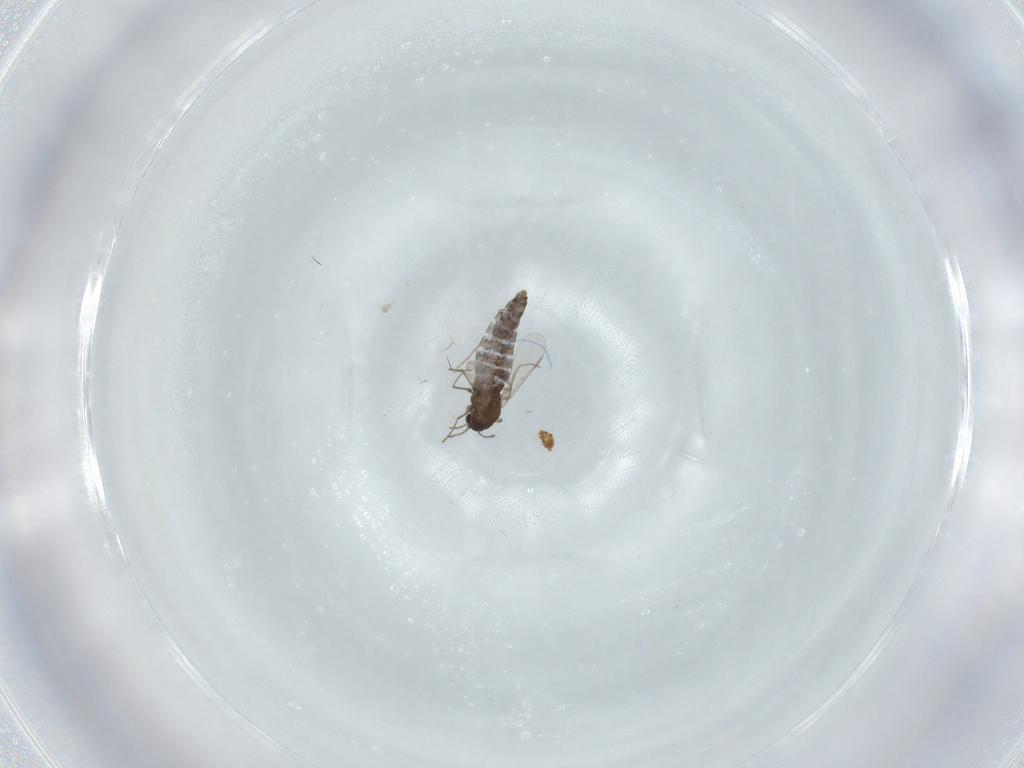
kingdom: Animalia
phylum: Arthropoda
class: Insecta
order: Diptera
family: Chironomidae
